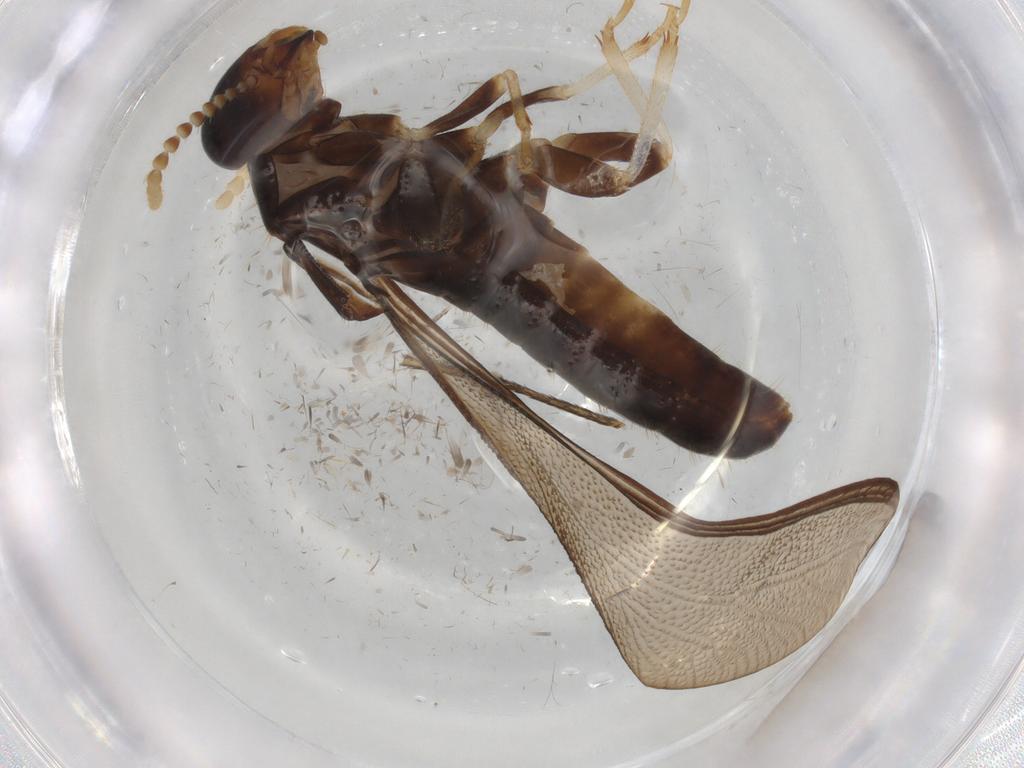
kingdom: Animalia
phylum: Arthropoda
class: Insecta
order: Blattodea
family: Kalotermitidae
